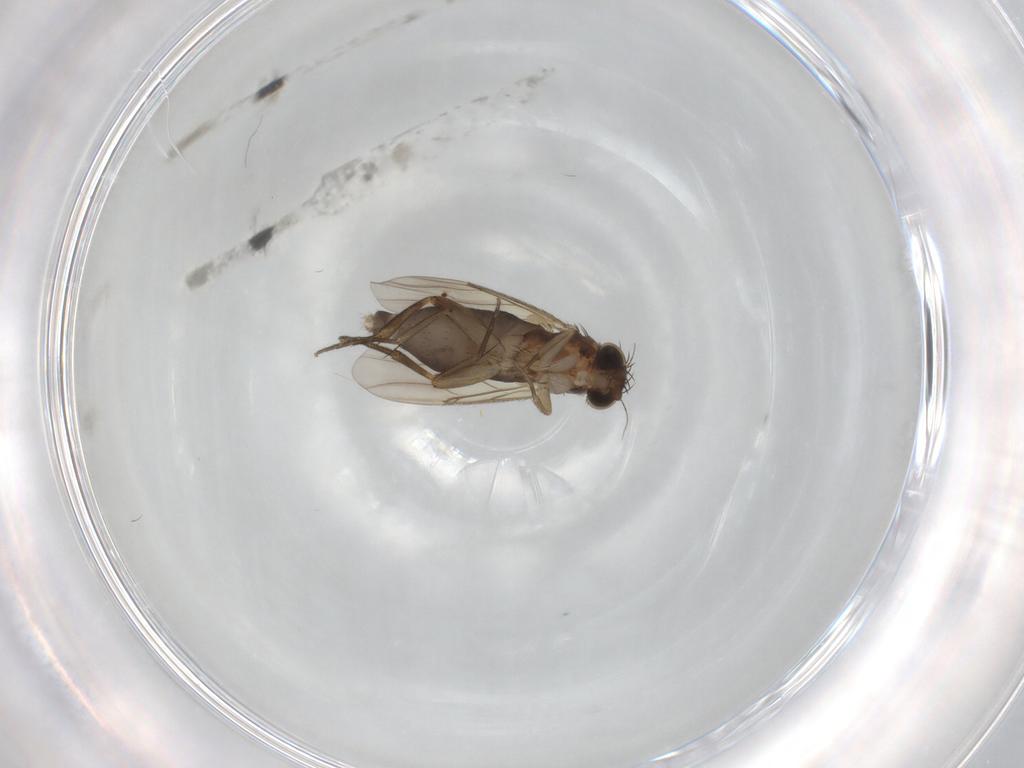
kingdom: Animalia
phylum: Arthropoda
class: Insecta
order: Diptera
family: Phoridae
